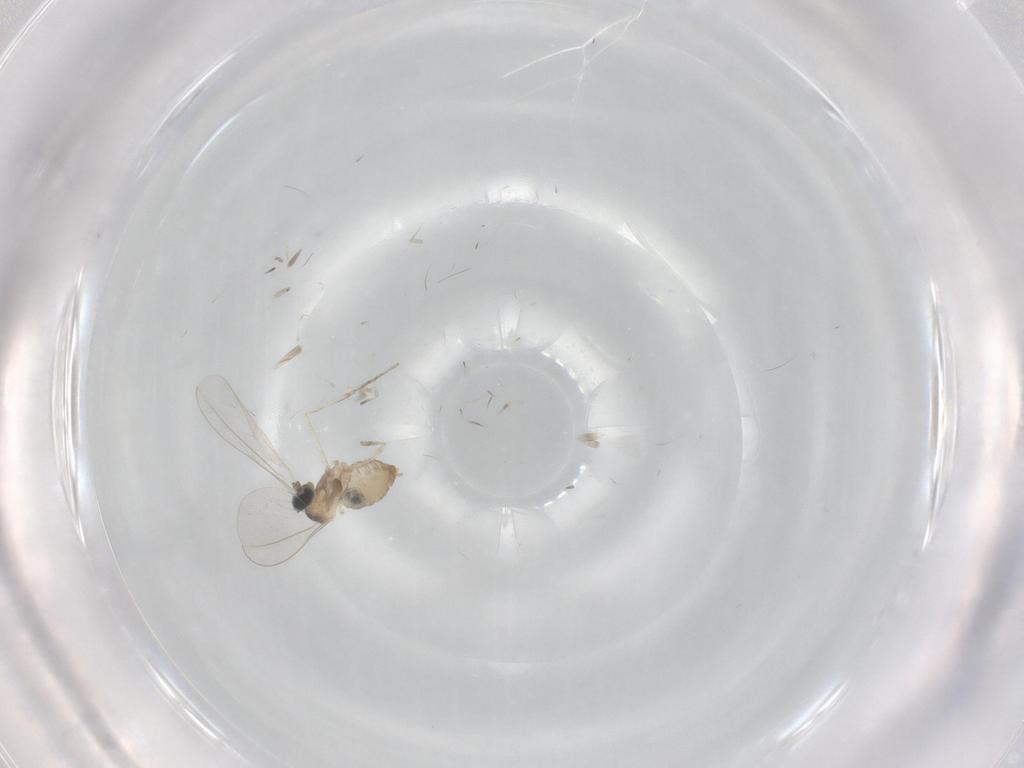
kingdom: Animalia
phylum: Arthropoda
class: Insecta
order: Diptera
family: Cecidomyiidae
